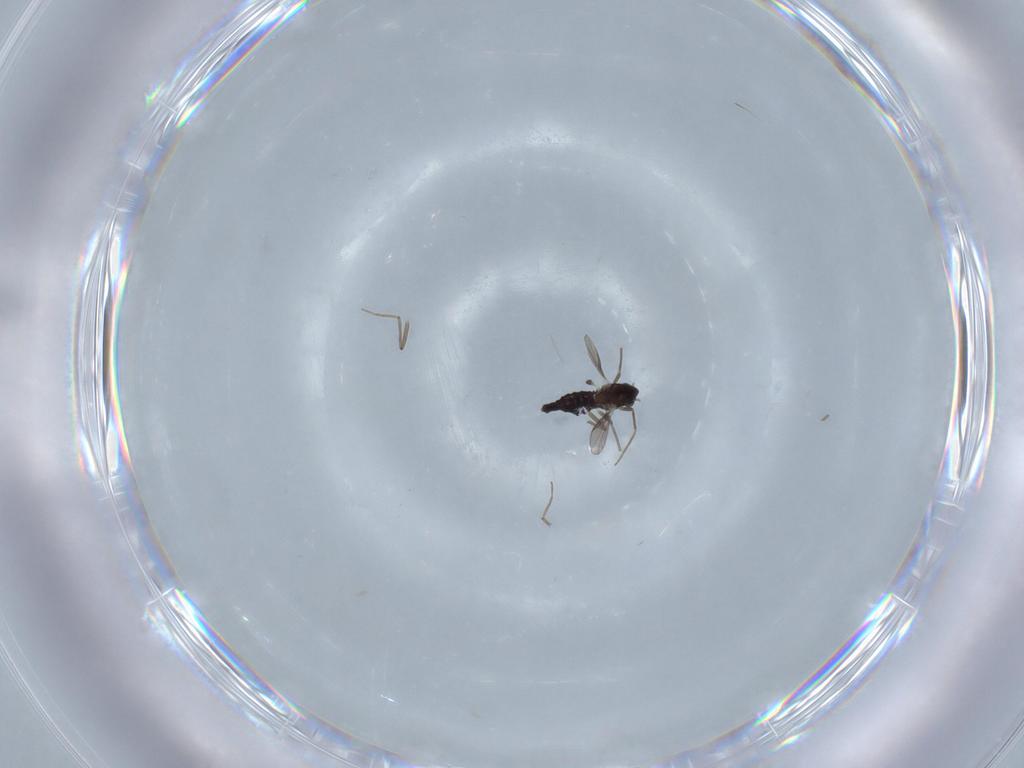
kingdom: Animalia
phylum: Arthropoda
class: Insecta
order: Diptera
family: Chironomidae
